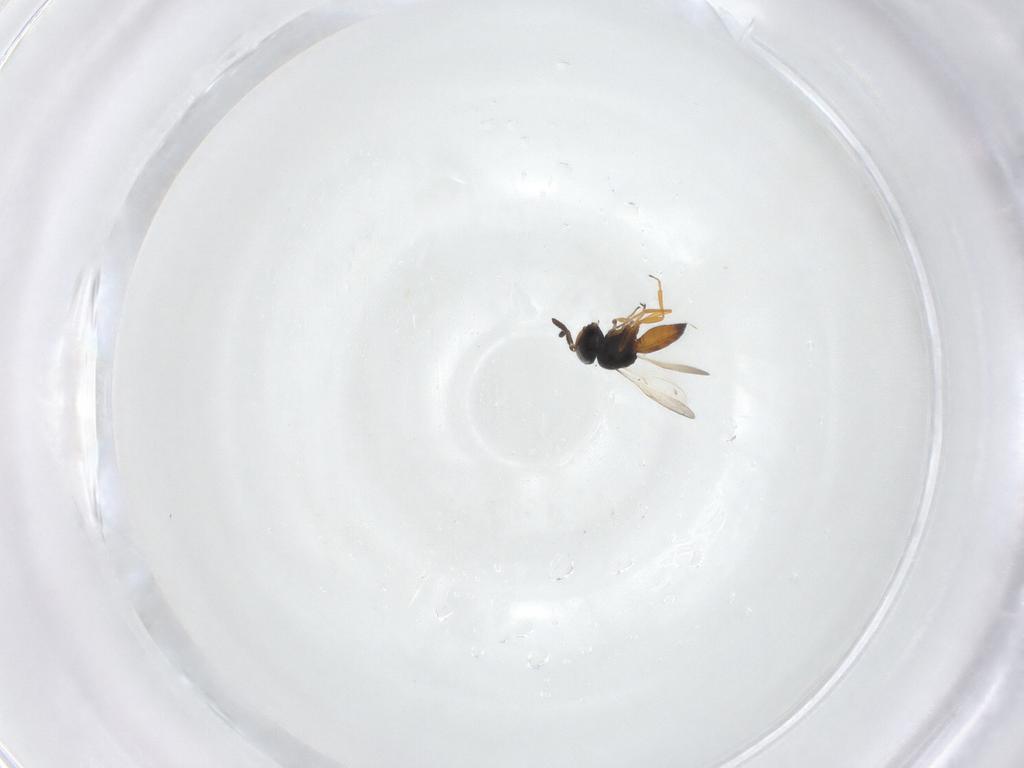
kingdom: Animalia
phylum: Arthropoda
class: Insecta
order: Hymenoptera
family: Scelionidae
